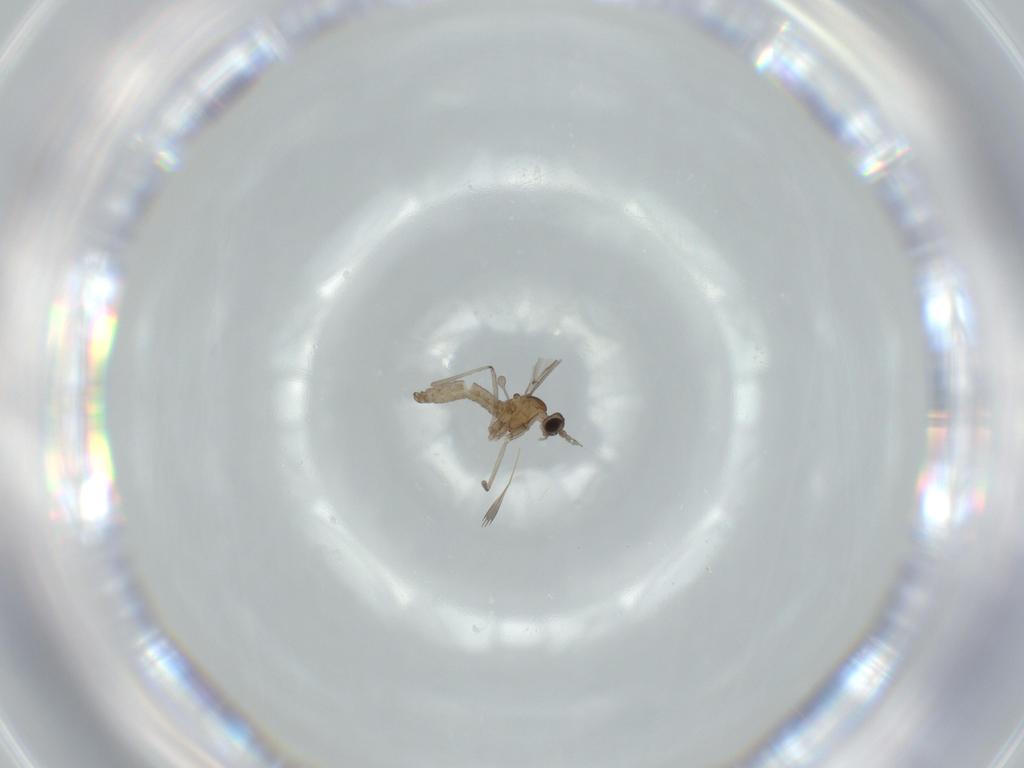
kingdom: Animalia
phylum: Arthropoda
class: Insecta
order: Diptera
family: Cecidomyiidae
